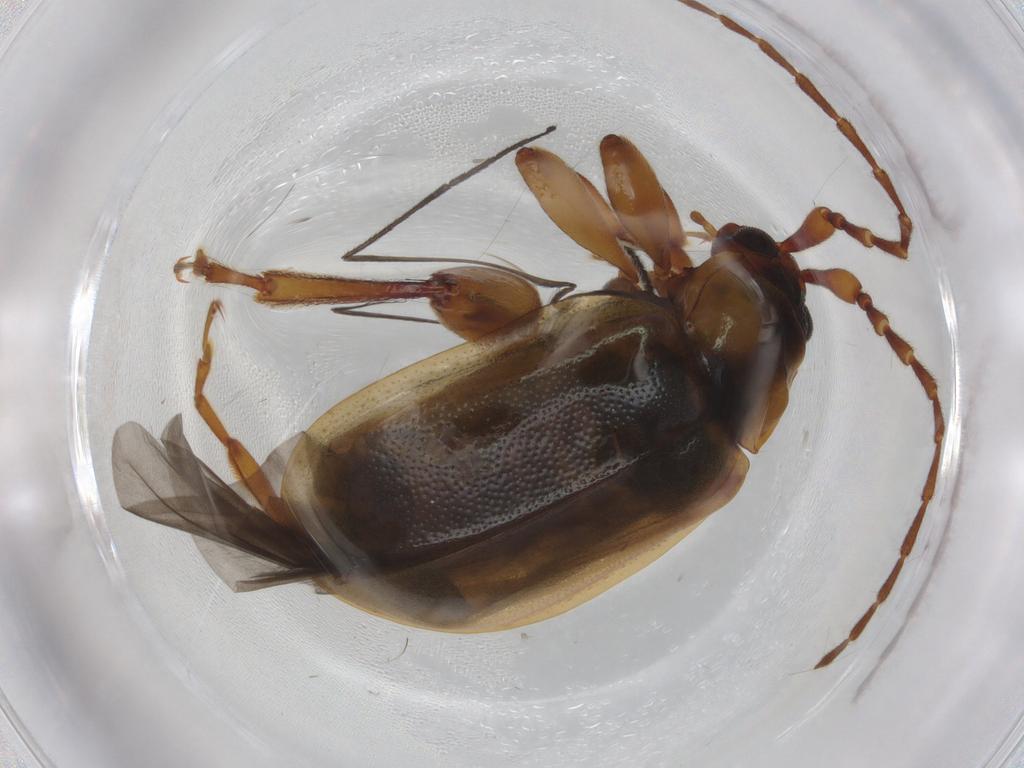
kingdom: Animalia
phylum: Arthropoda
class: Insecta
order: Coleoptera
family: Chrysomelidae
